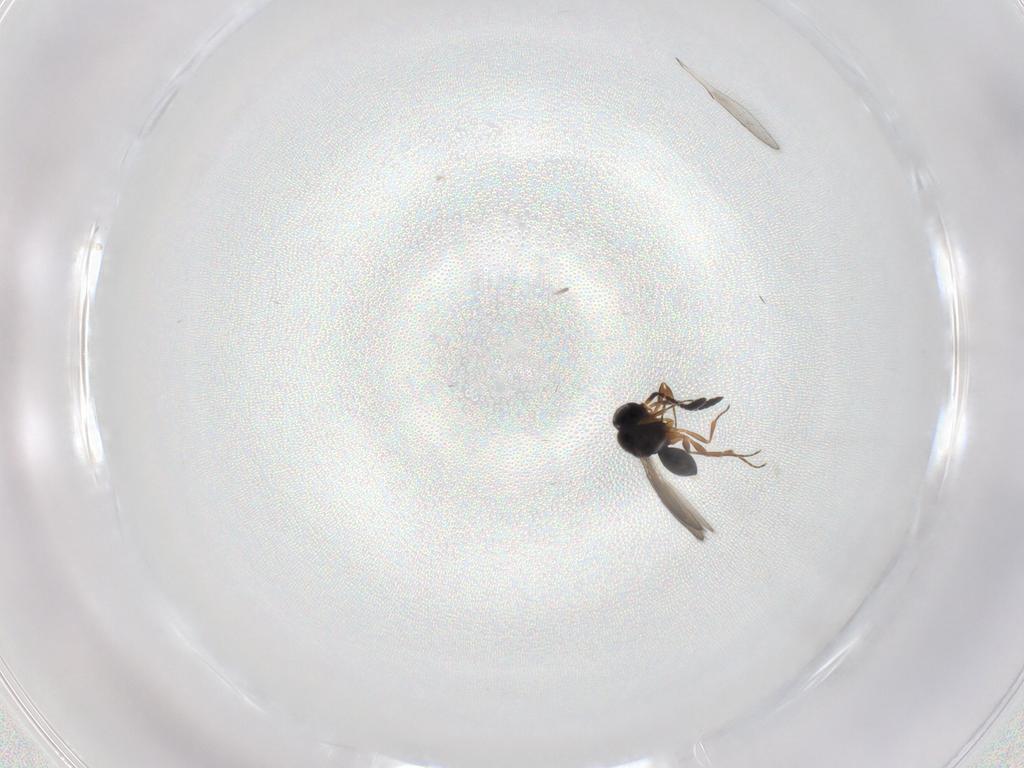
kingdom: Animalia
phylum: Arthropoda
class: Insecta
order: Hymenoptera
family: Scelionidae
